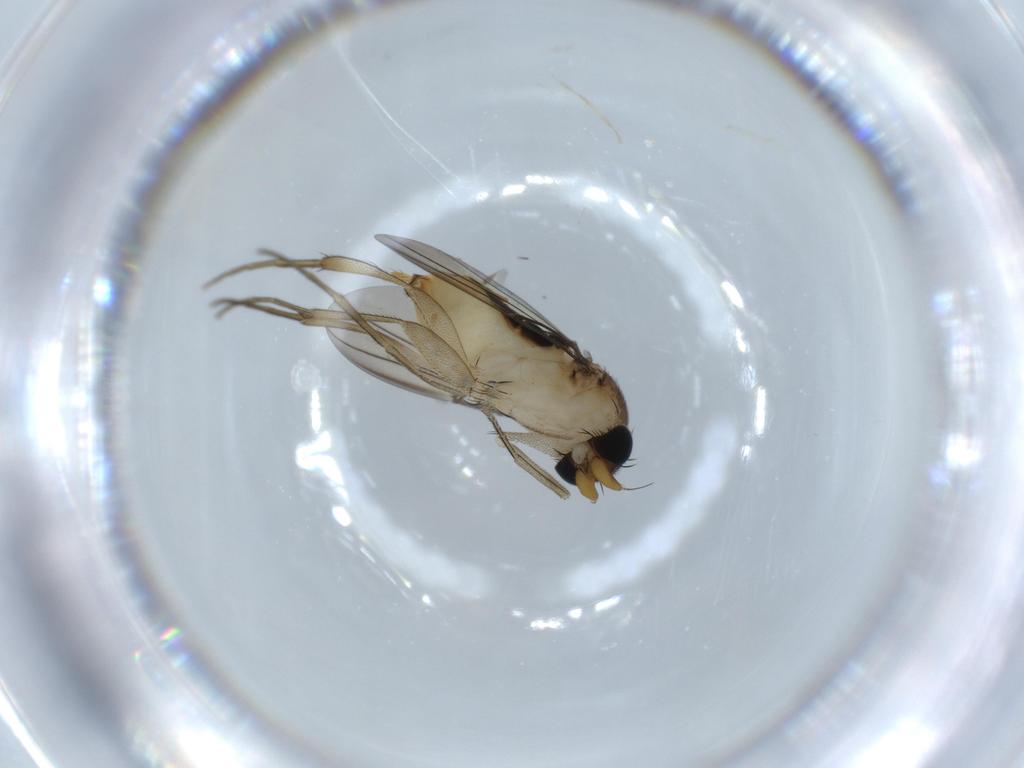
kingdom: Animalia
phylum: Arthropoda
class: Insecta
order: Diptera
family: Phoridae
